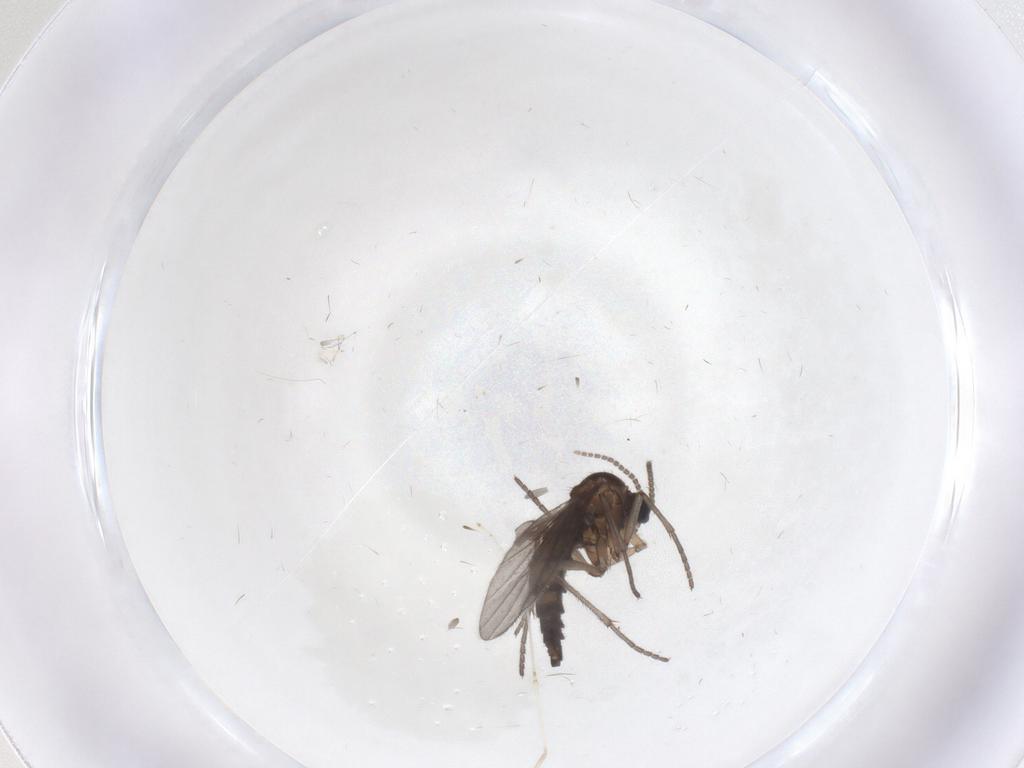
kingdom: Animalia
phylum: Arthropoda
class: Insecta
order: Diptera
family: Sciaridae
